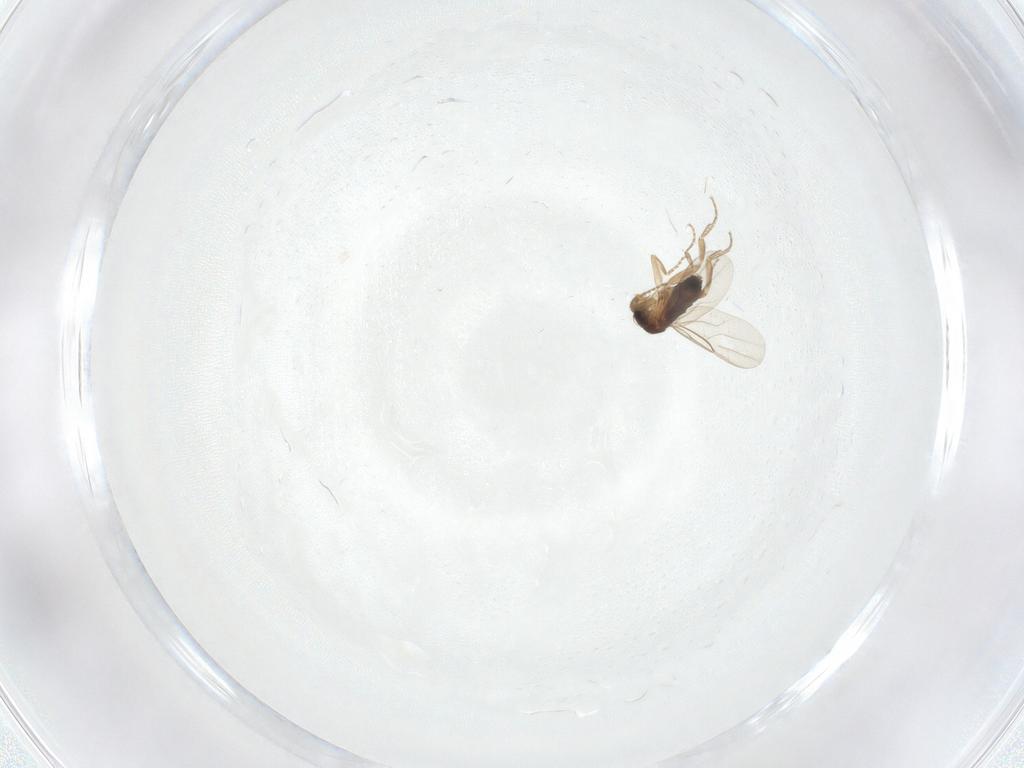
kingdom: Animalia
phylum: Arthropoda
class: Insecta
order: Diptera
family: Phoridae
